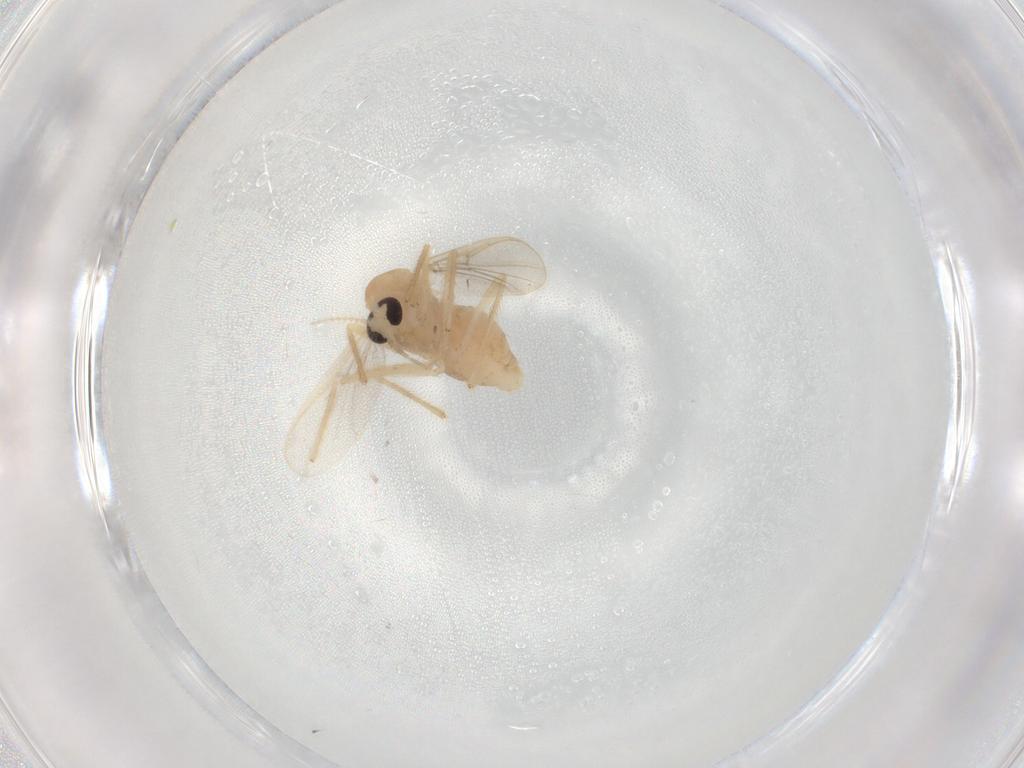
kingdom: Animalia
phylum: Arthropoda
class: Insecta
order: Diptera
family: Chironomidae
